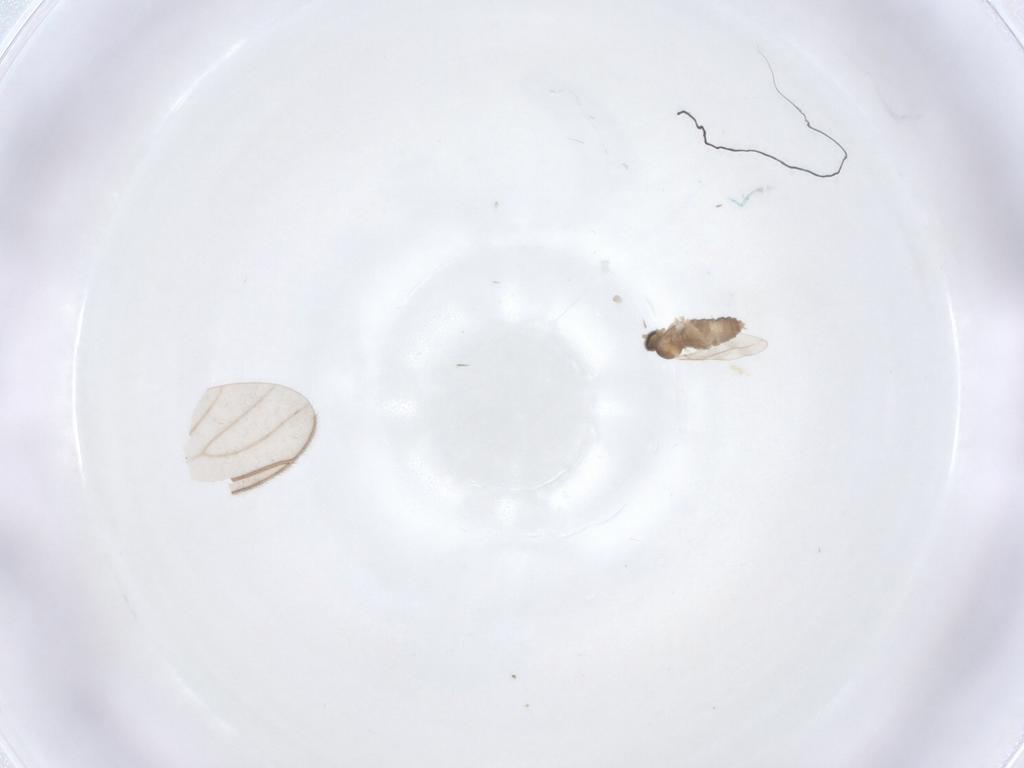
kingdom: Animalia
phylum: Arthropoda
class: Insecta
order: Diptera
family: Cecidomyiidae
